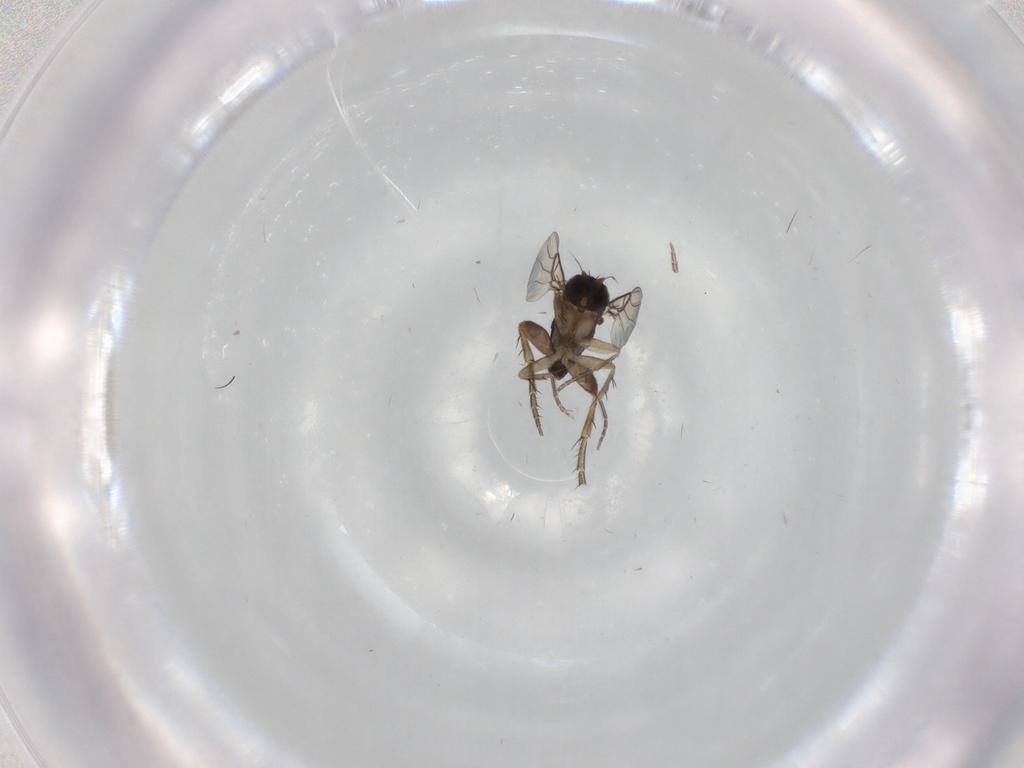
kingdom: Animalia
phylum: Arthropoda
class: Insecta
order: Diptera
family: Phoridae
